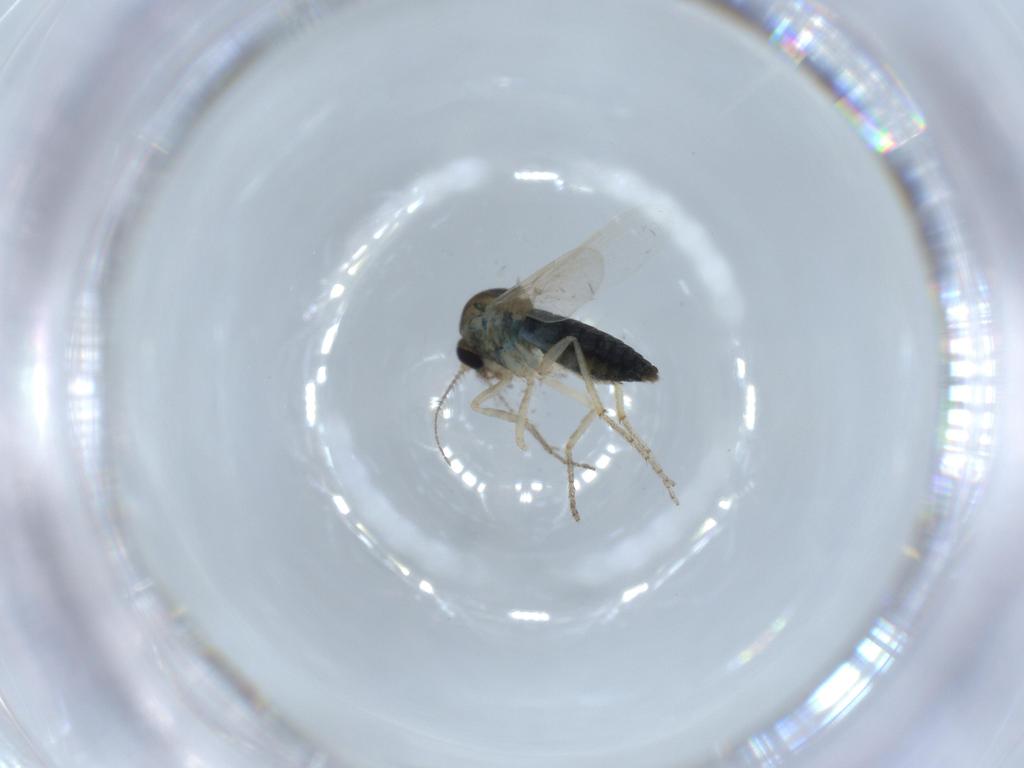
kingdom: Animalia
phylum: Arthropoda
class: Insecta
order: Diptera
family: Ceratopogonidae
